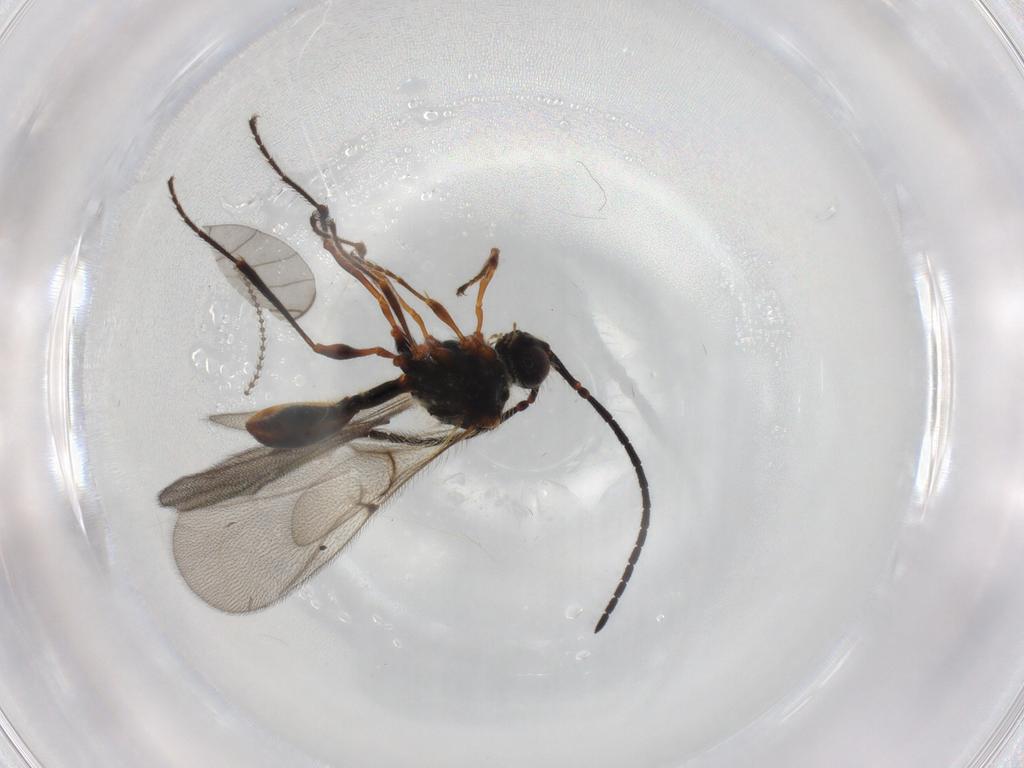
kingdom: Animalia
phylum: Arthropoda
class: Insecta
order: Hymenoptera
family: Diapriidae
